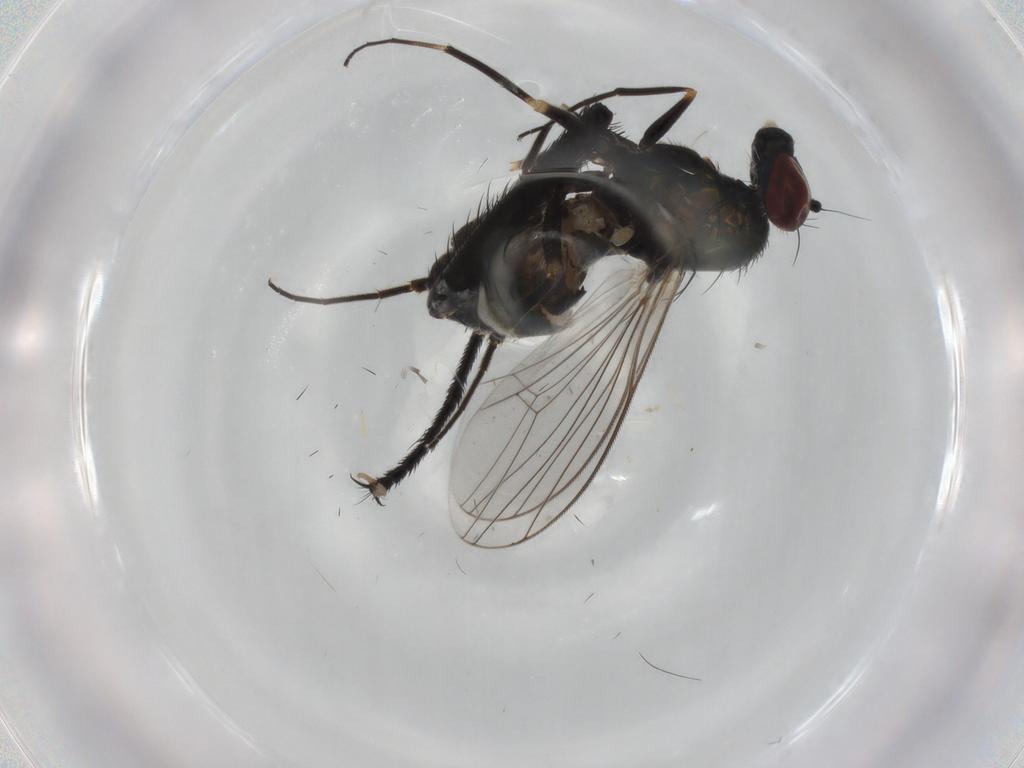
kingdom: Animalia
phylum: Arthropoda
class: Insecta
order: Diptera
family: Dolichopodidae
